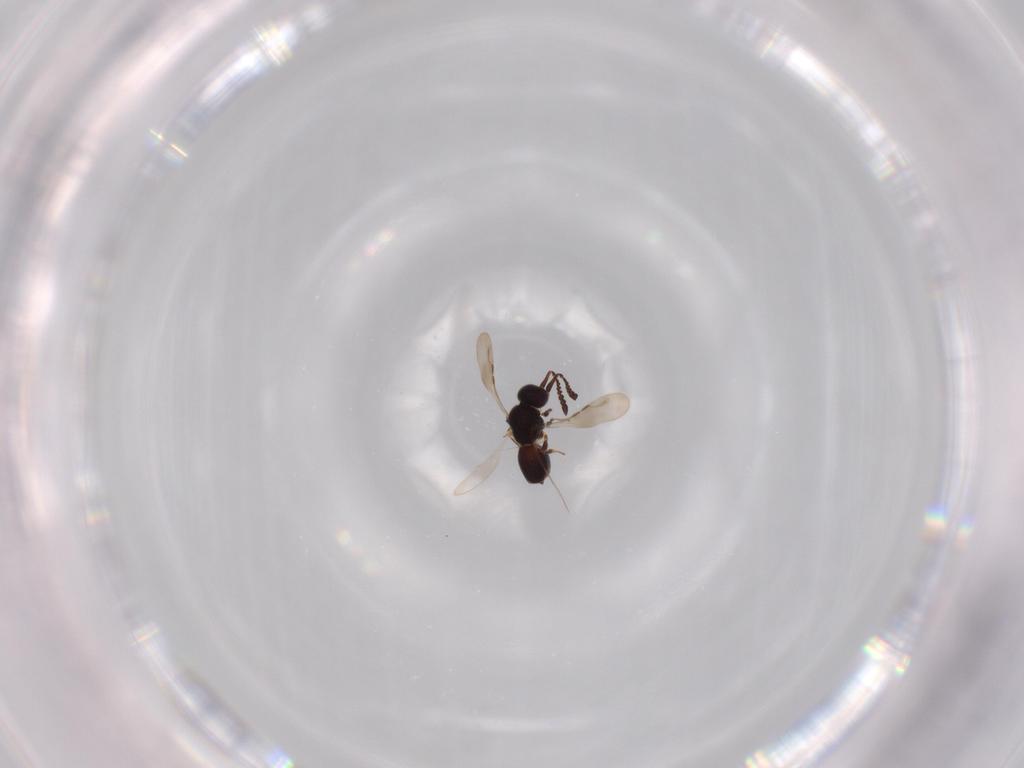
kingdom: Animalia
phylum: Arthropoda
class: Insecta
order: Hymenoptera
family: Ceraphronidae
